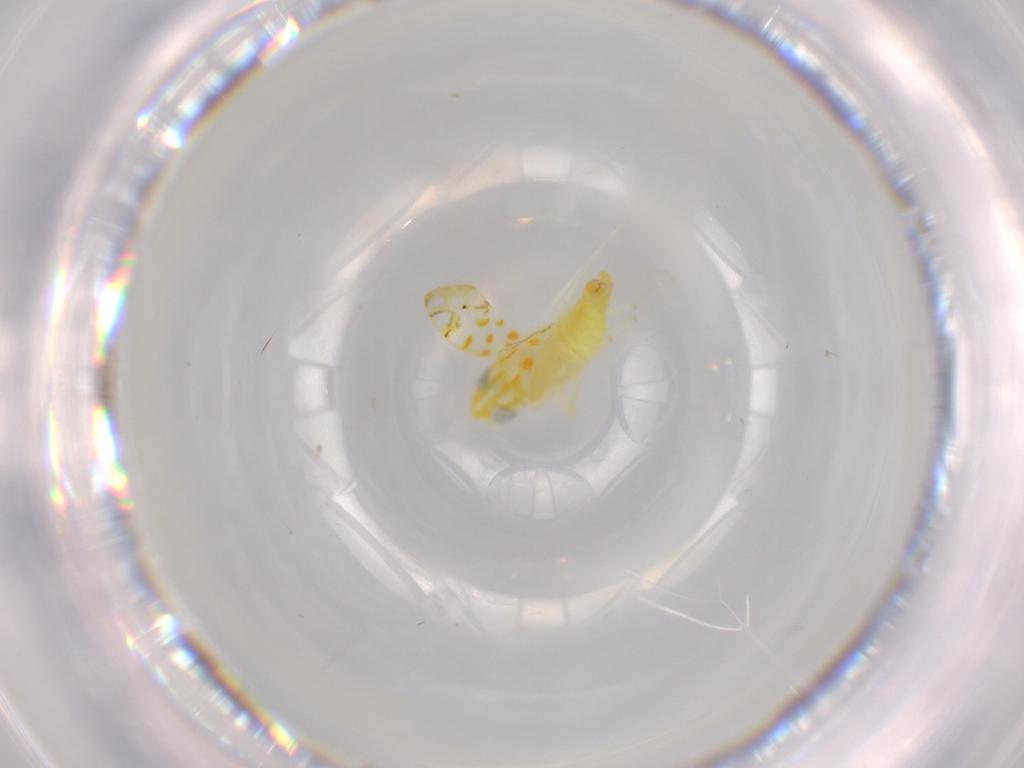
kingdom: Animalia
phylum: Arthropoda
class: Insecta
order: Hemiptera
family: Cicadellidae
